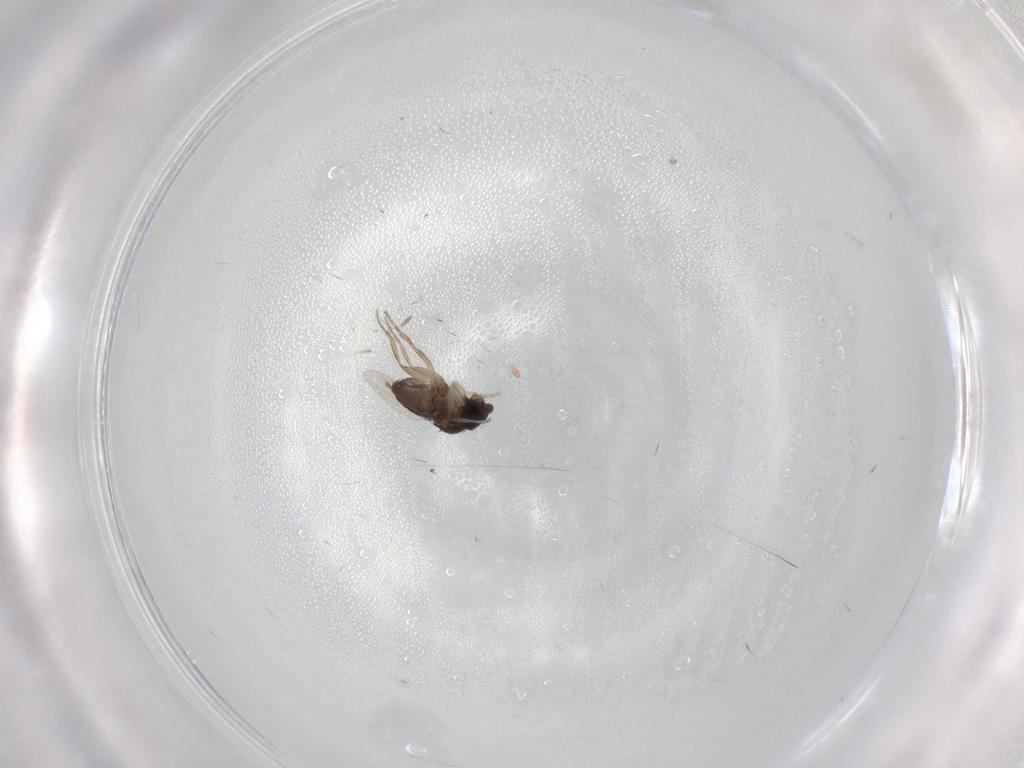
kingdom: Animalia
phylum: Arthropoda
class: Insecta
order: Diptera
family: Phoridae
